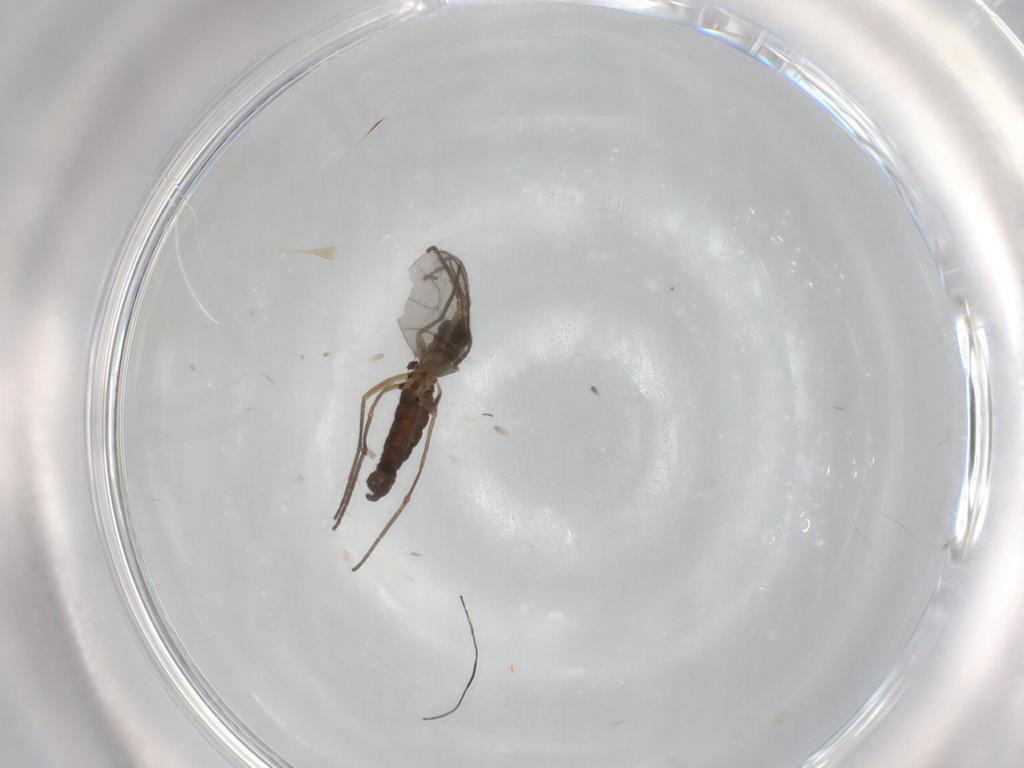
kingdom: Animalia
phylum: Arthropoda
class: Insecta
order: Diptera
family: Sciaridae
